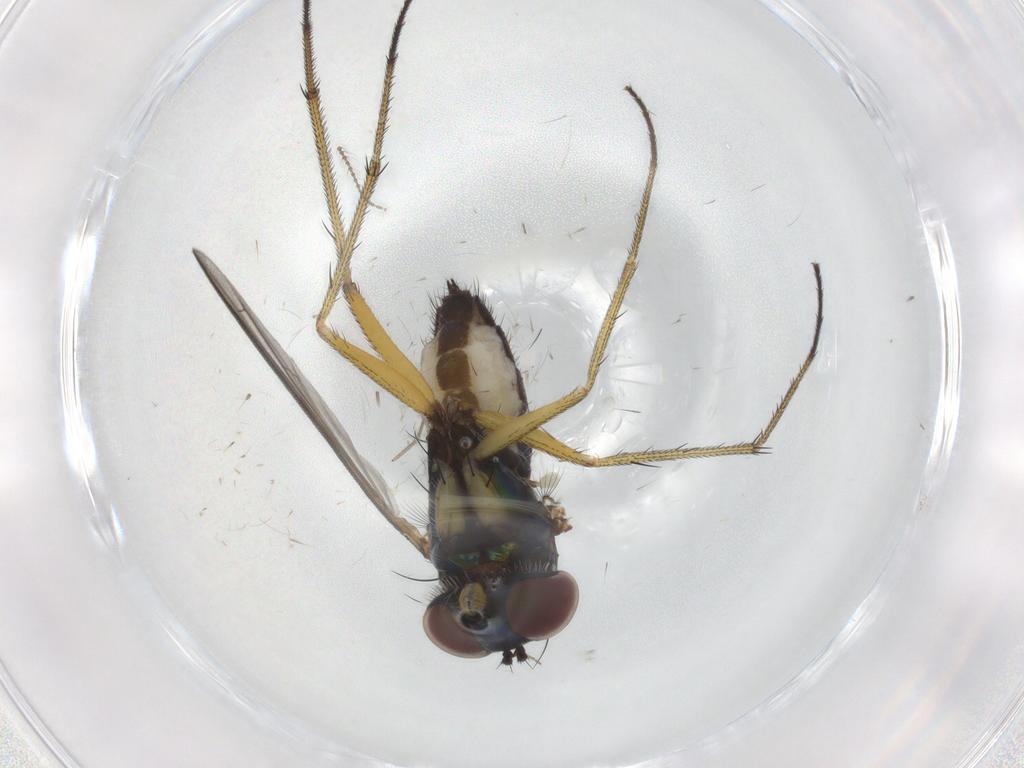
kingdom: Animalia
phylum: Arthropoda
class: Insecta
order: Diptera
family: Dolichopodidae
